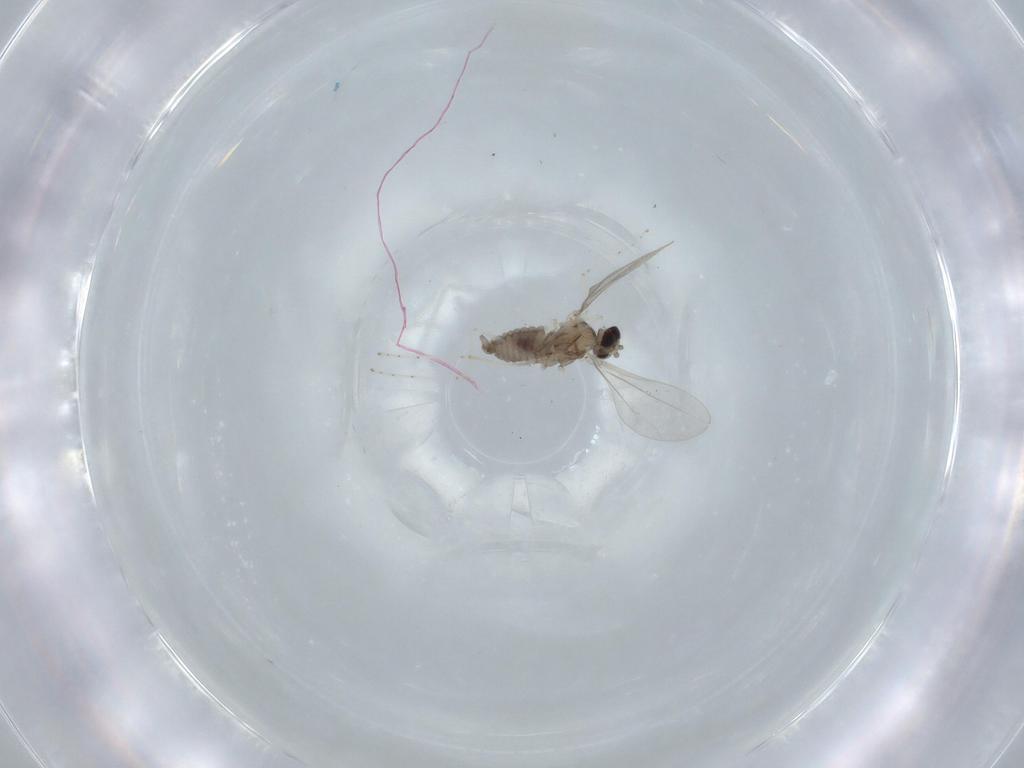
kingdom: Animalia
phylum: Arthropoda
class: Insecta
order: Diptera
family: Cecidomyiidae
